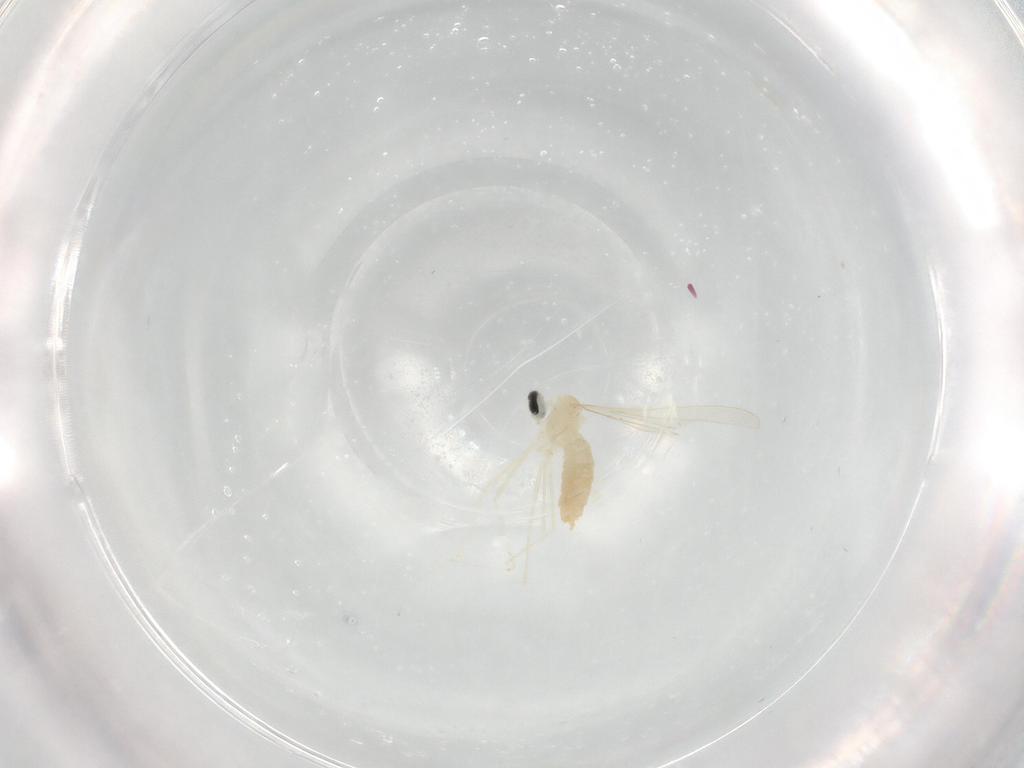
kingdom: Animalia
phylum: Arthropoda
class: Insecta
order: Diptera
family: Cecidomyiidae
